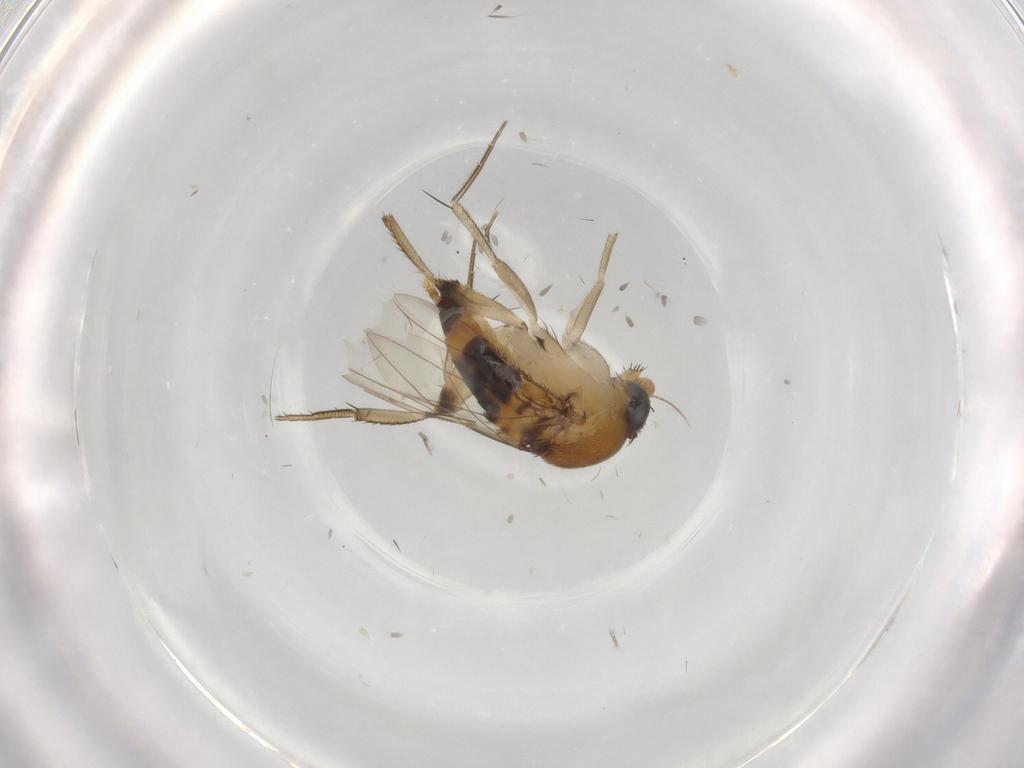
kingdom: Animalia
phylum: Arthropoda
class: Insecta
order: Diptera
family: Phoridae
